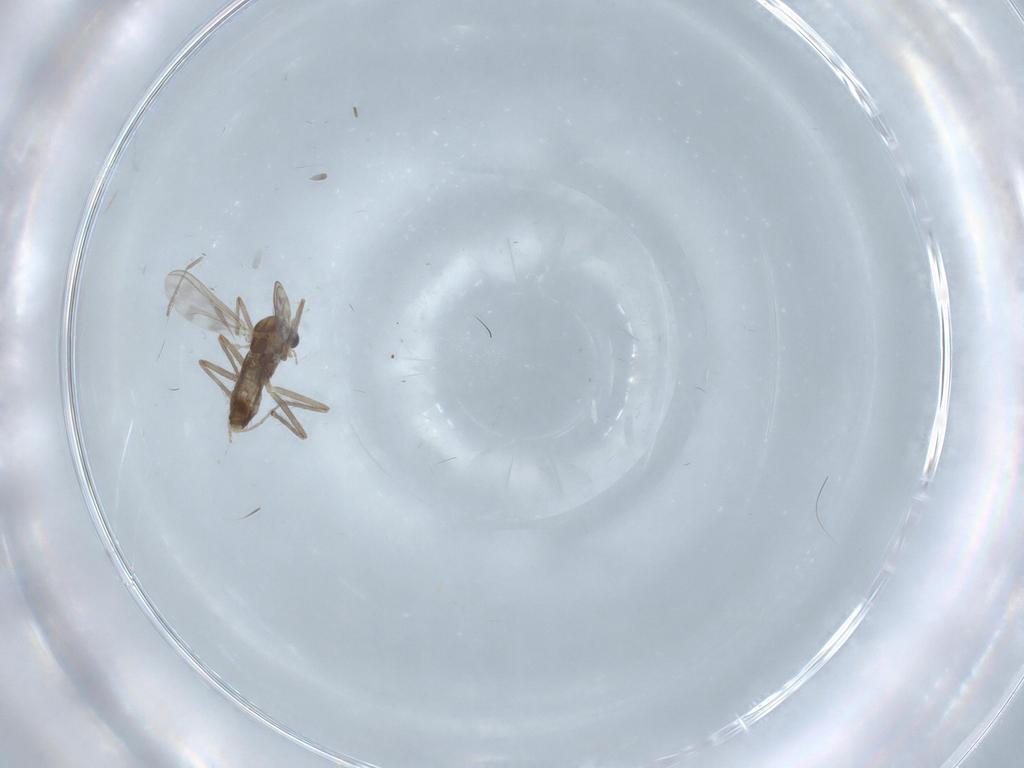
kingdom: Animalia
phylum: Arthropoda
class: Insecta
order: Diptera
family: Chironomidae
